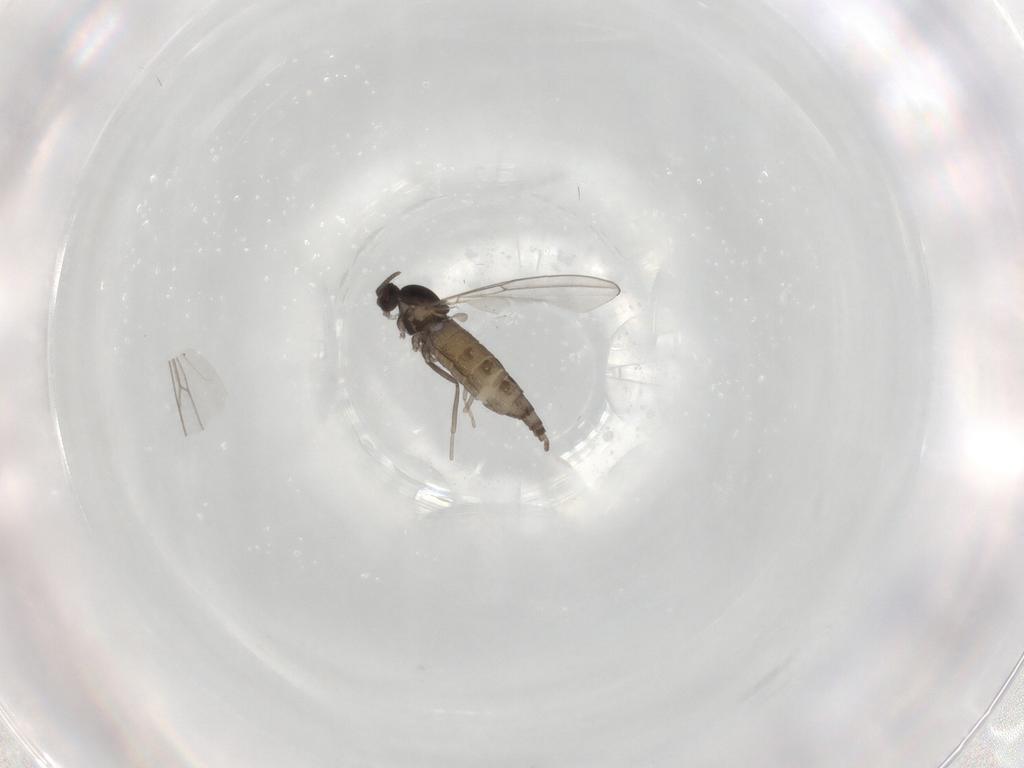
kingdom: Animalia
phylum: Arthropoda
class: Insecta
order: Diptera
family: Cecidomyiidae
